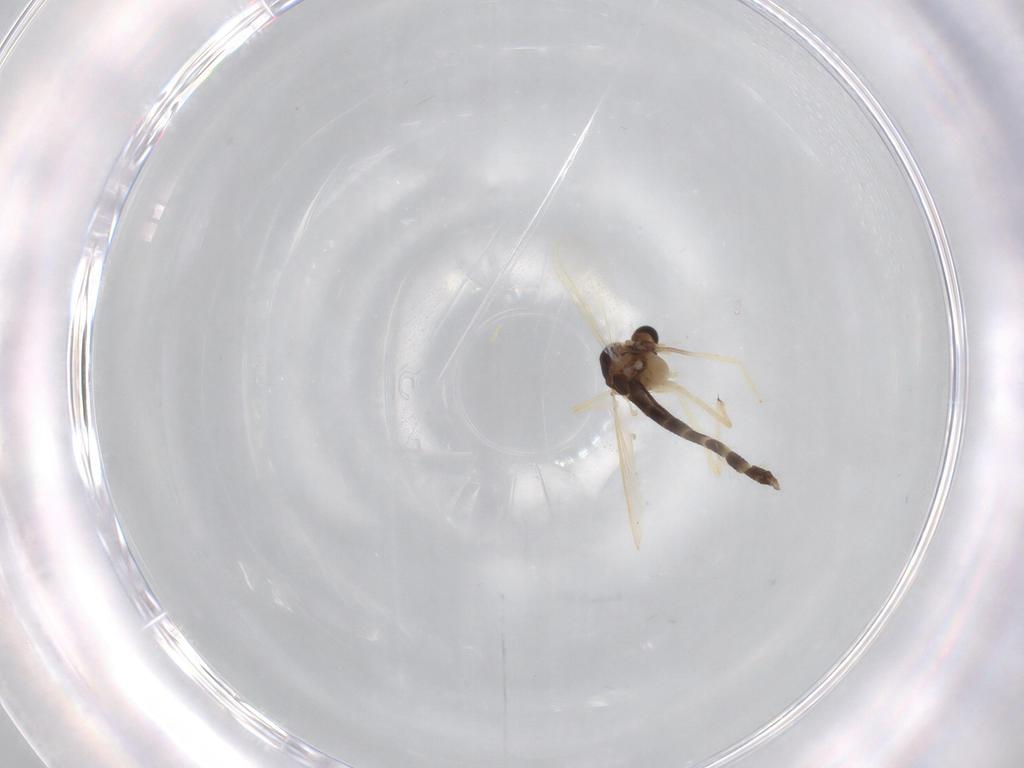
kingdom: Animalia
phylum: Arthropoda
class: Insecta
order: Diptera
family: Chironomidae
